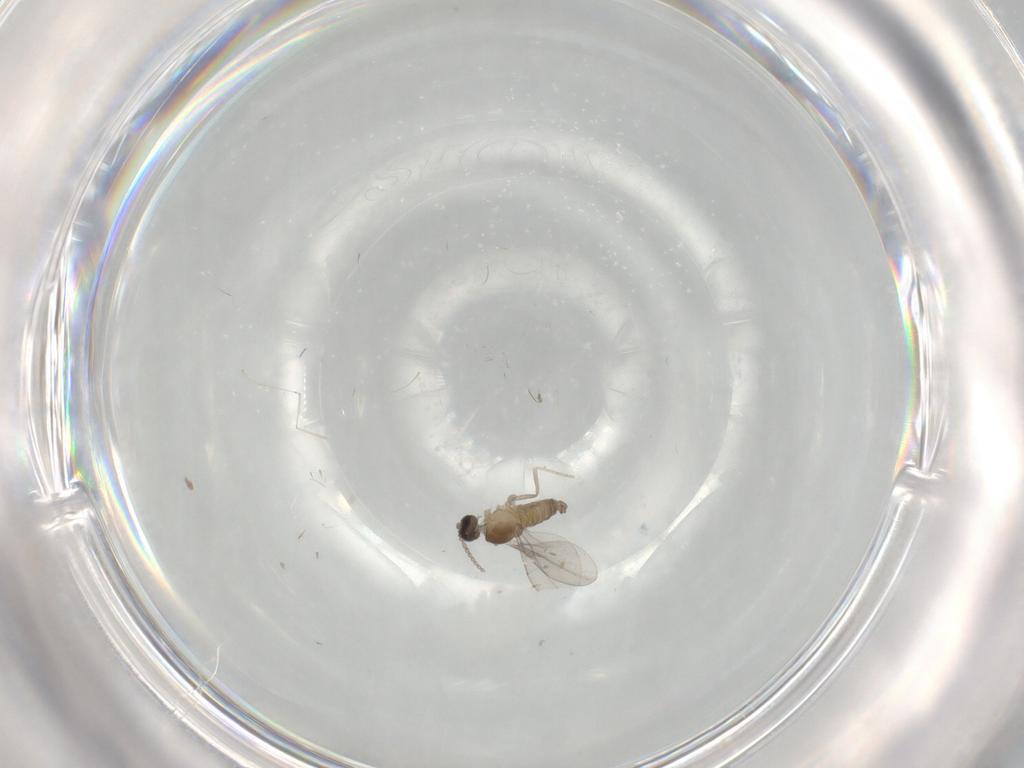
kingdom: Animalia
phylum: Arthropoda
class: Insecta
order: Diptera
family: Cecidomyiidae
